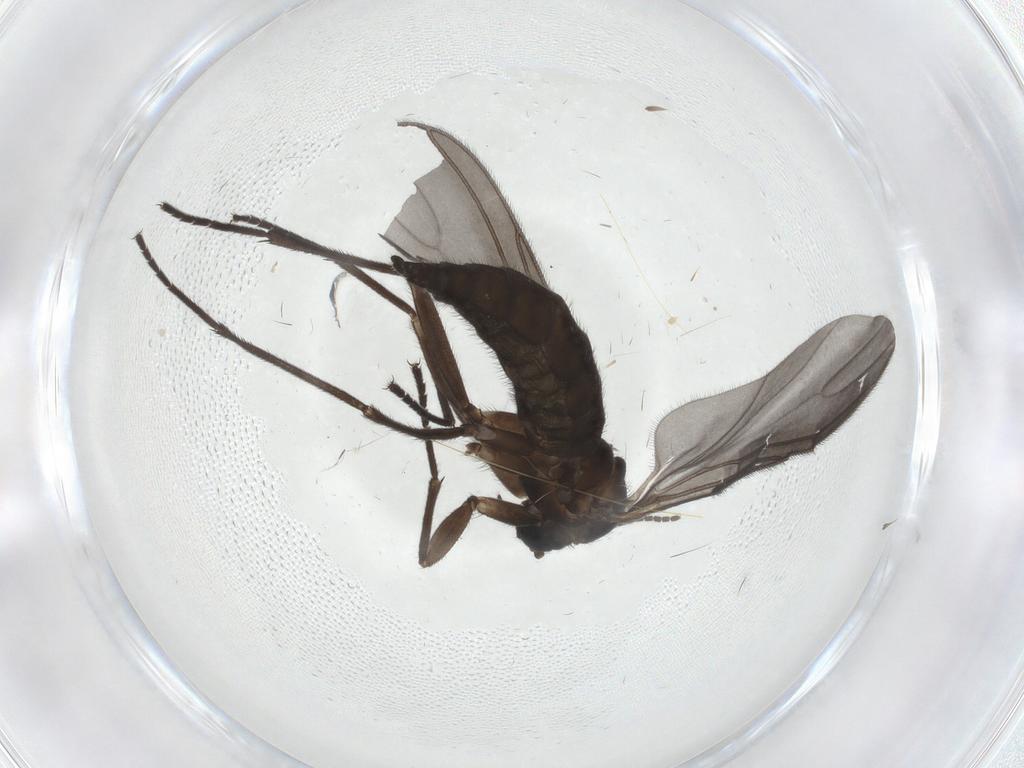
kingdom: Animalia
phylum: Arthropoda
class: Insecta
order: Diptera
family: Sciaridae
